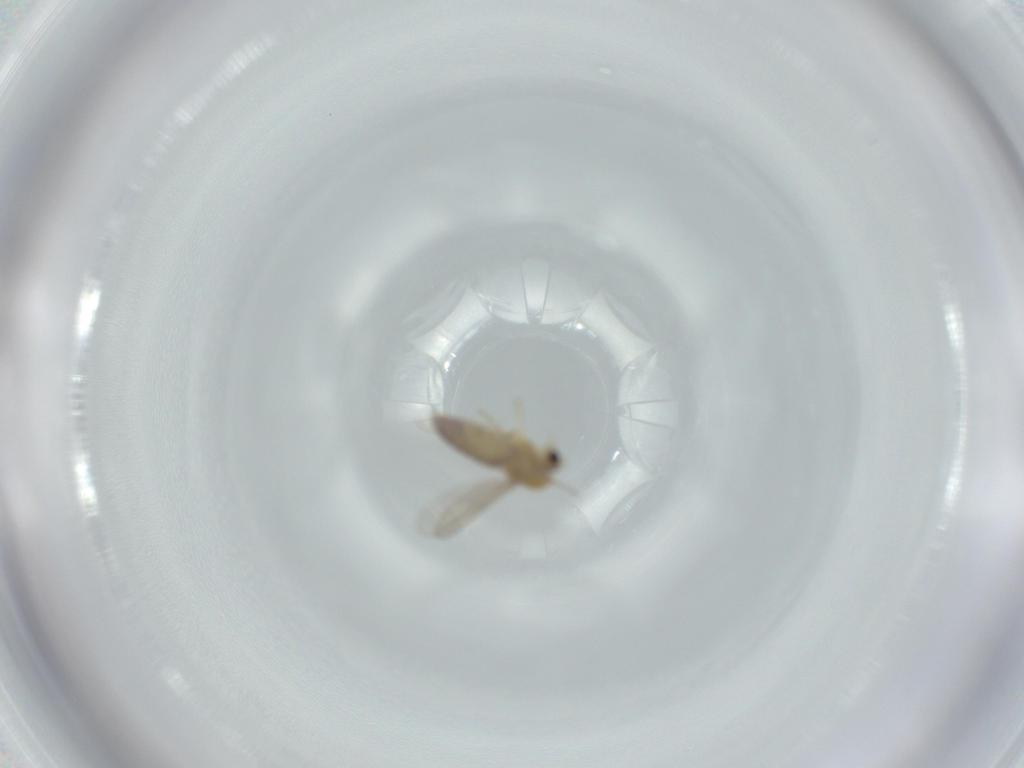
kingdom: Animalia
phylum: Arthropoda
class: Insecta
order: Diptera
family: Chironomidae
